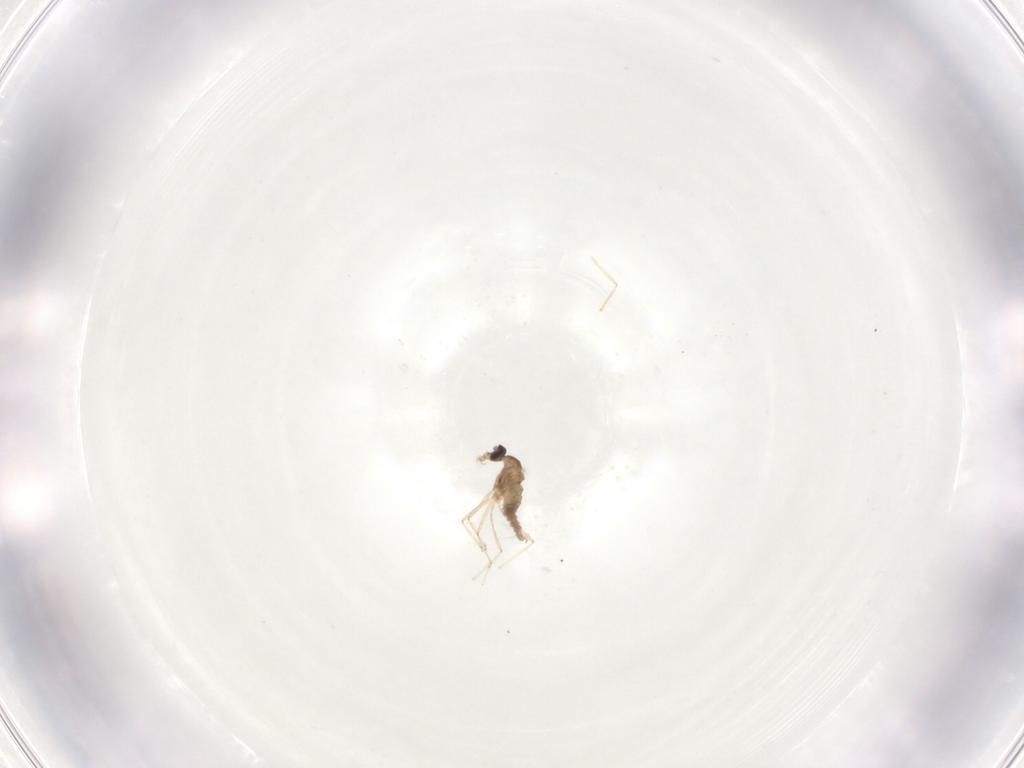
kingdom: Animalia
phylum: Arthropoda
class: Insecta
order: Diptera
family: Cecidomyiidae
